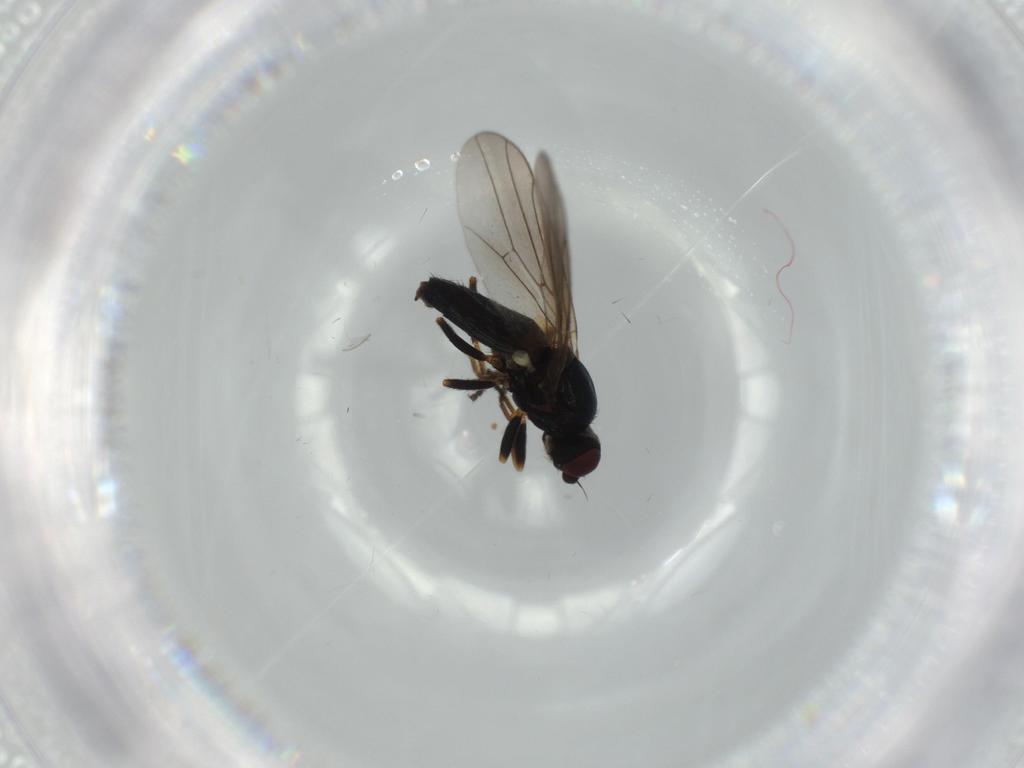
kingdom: Animalia
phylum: Arthropoda
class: Insecta
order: Diptera
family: Chloropidae
